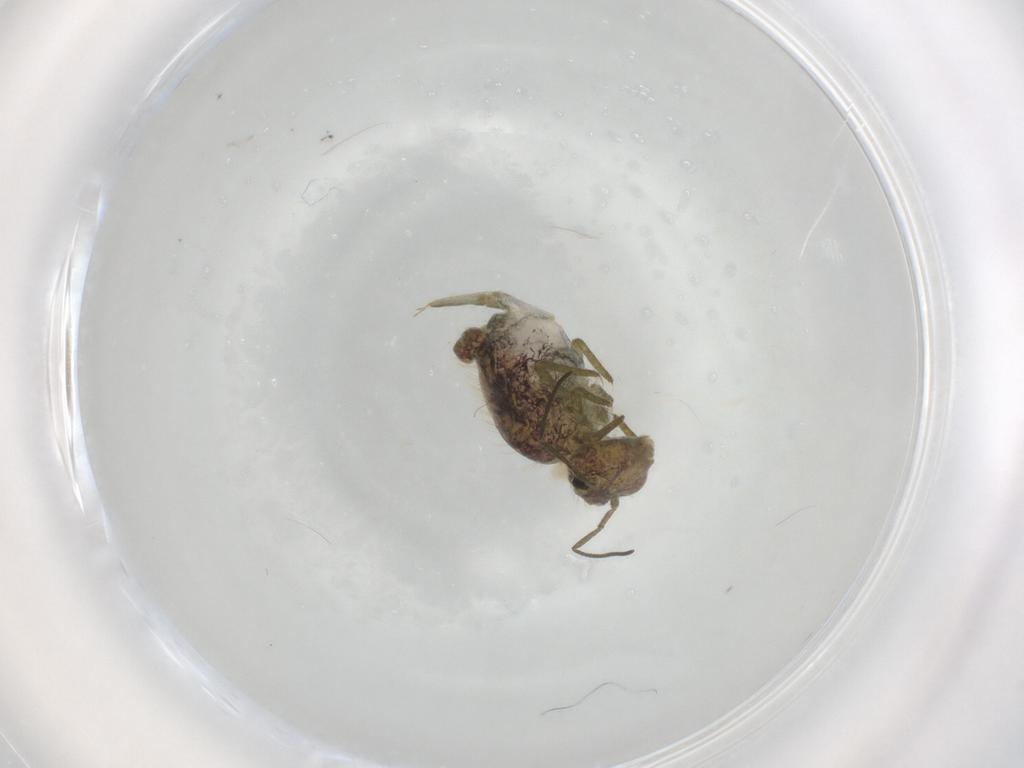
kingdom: Animalia
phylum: Arthropoda
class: Collembola
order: Symphypleona
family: Sminthuridae
